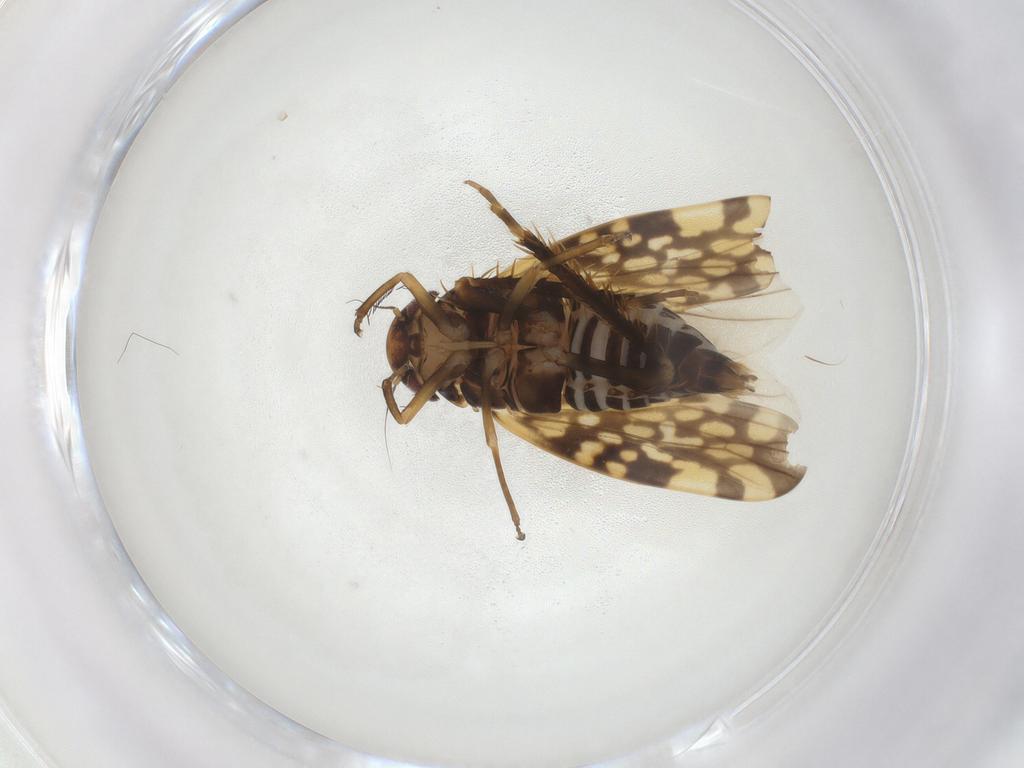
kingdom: Animalia
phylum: Arthropoda
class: Insecta
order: Hemiptera
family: Cicadellidae
